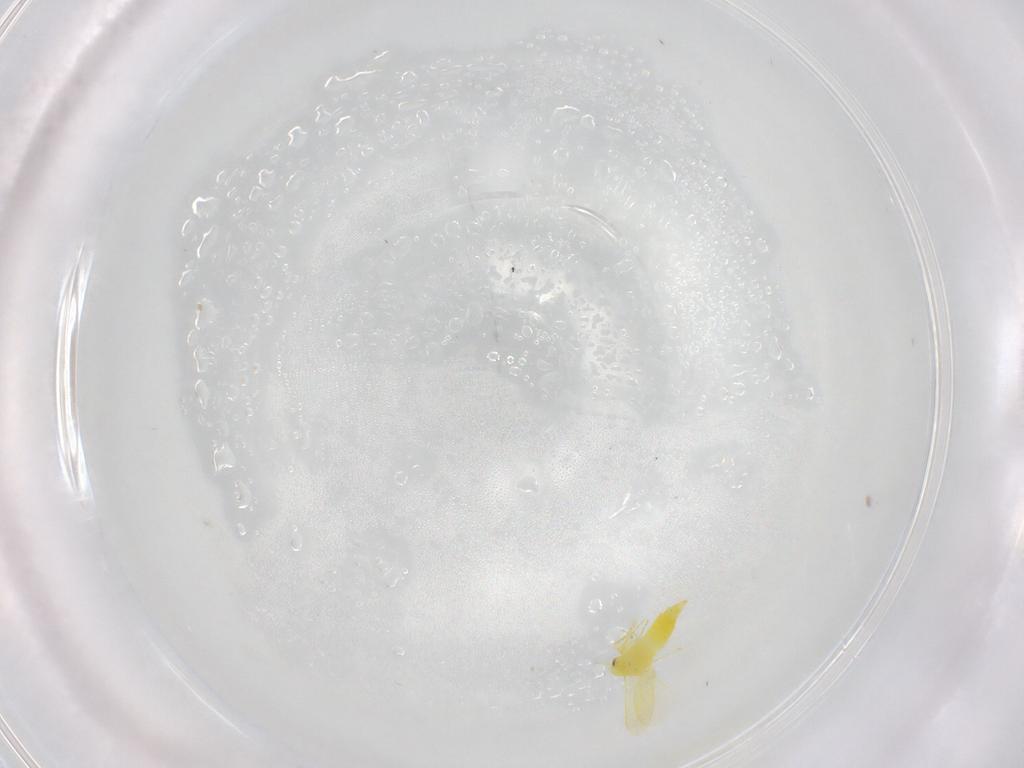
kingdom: Animalia
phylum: Arthropoda
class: Insecta
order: Hemiptera
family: Aleyrodidae
